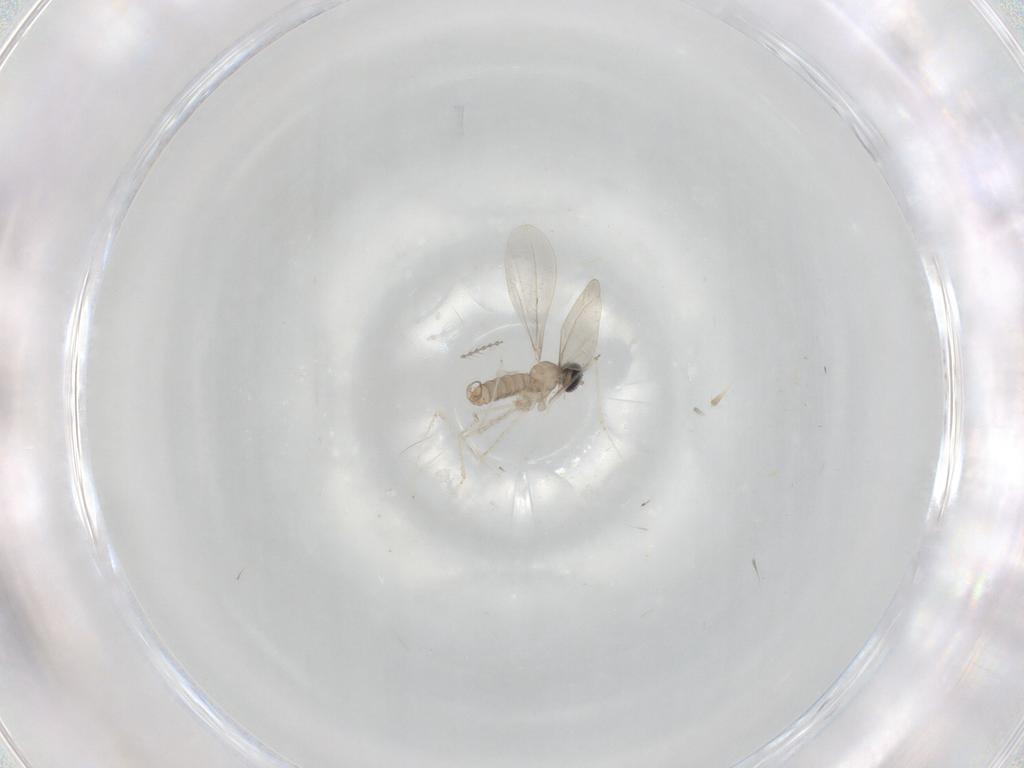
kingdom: Animalia
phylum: Arthropoda
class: Insecta
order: Diptera
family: Cecidomyiidae
